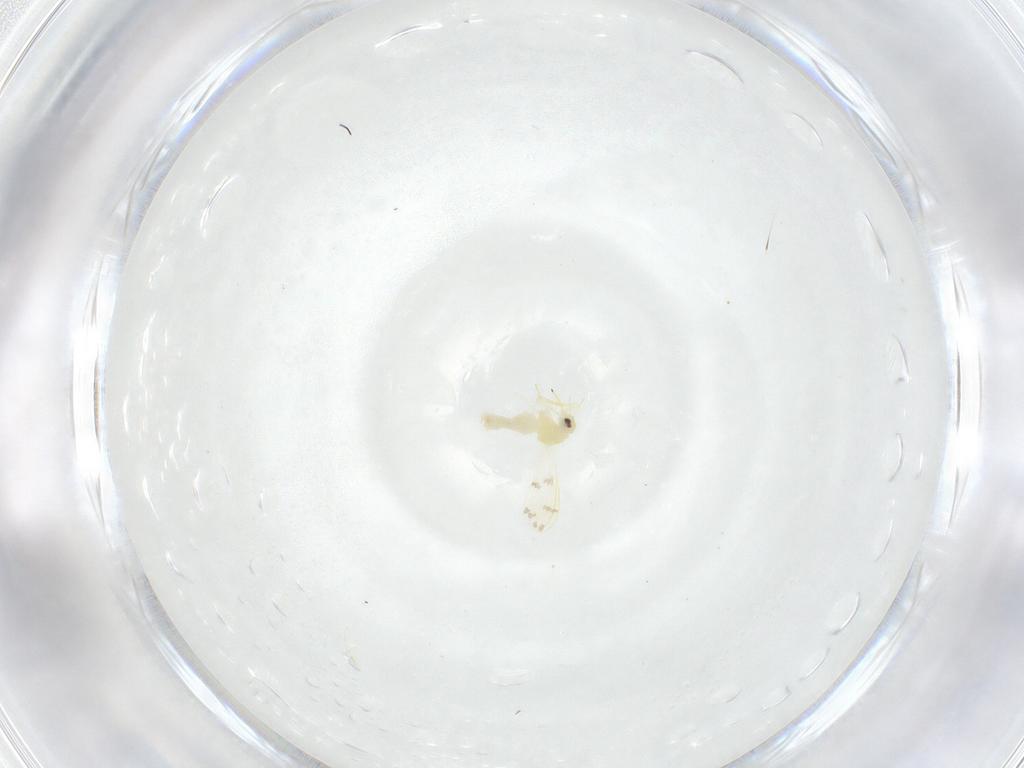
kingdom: Animalia
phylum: Arthropoda
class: Insecta
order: Hemiptera
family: Aleyrodidae
